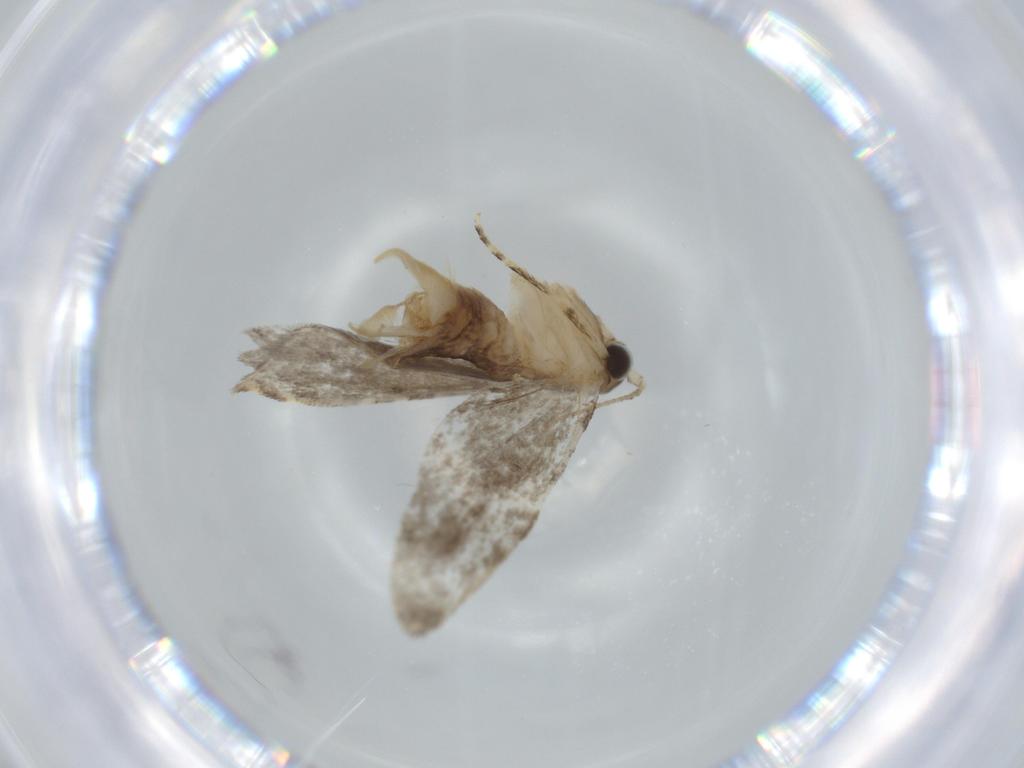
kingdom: Animalia
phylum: Arthropoda
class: Insecta
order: Lepidoptera
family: Tineidae
